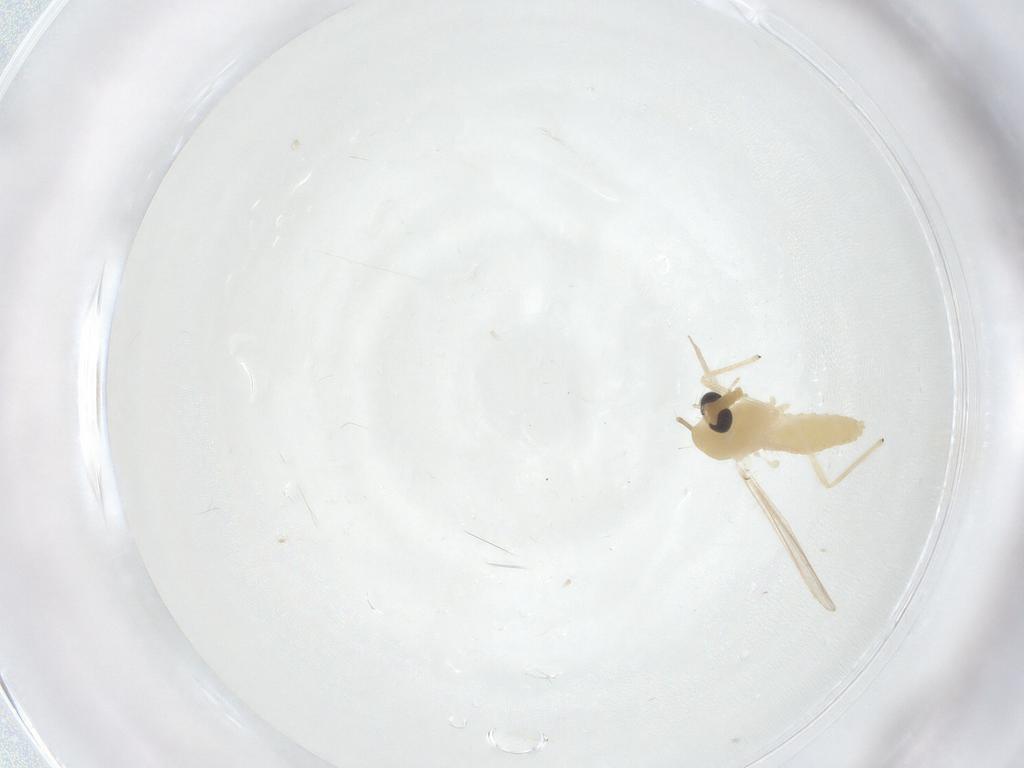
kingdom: Animalia
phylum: Arthropoda
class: Insecta
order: Diptera
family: Chironomidae
